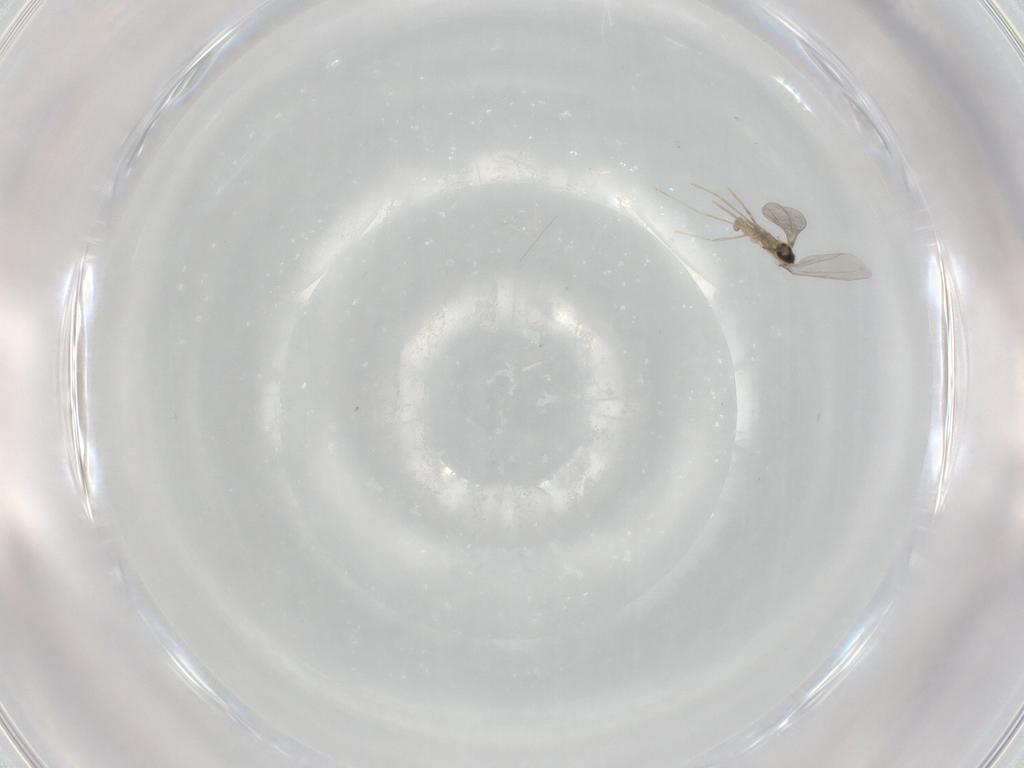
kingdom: Animalia
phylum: Arthropoda
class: Insecta
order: Diptera
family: Cecidomyiidae
